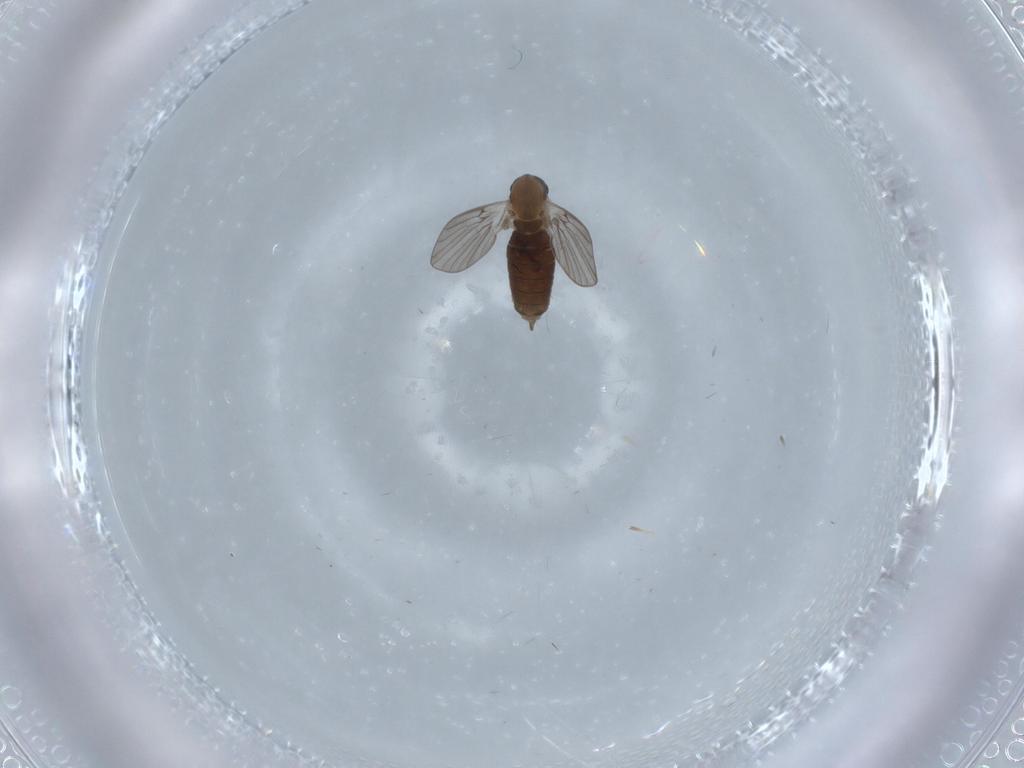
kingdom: Animalia
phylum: Arthropoda
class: Insecta
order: Diptera
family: Psychodidae
